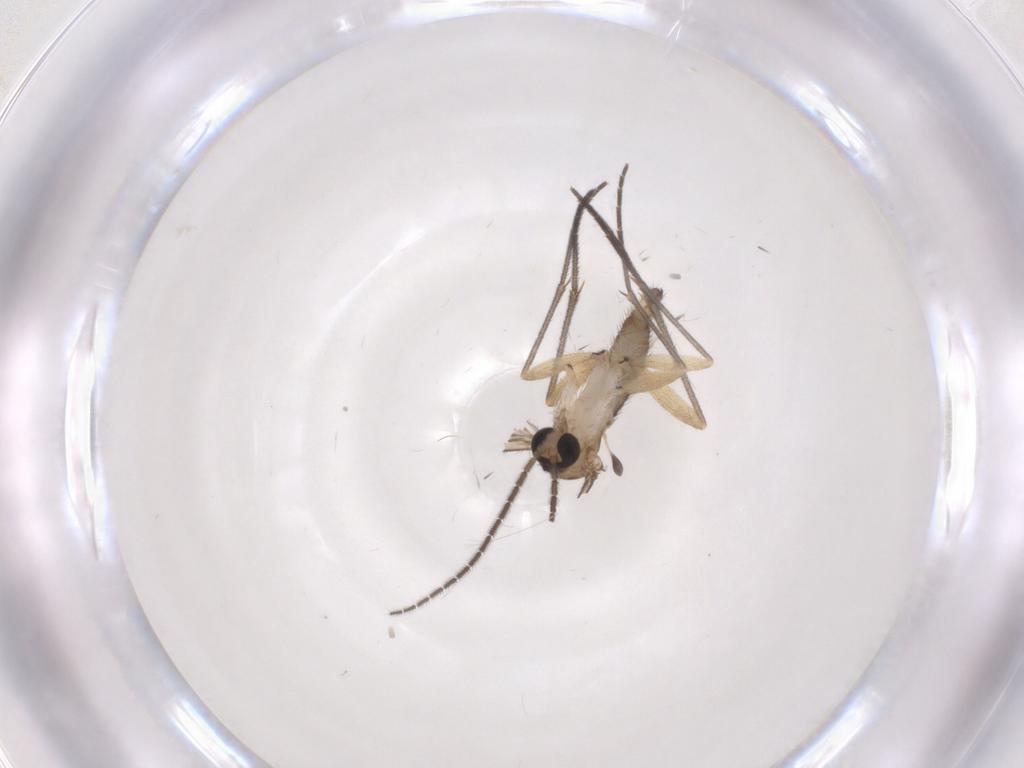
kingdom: Animalia
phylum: Arthropoda
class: Insecta
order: Diptera
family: Sciaridae
